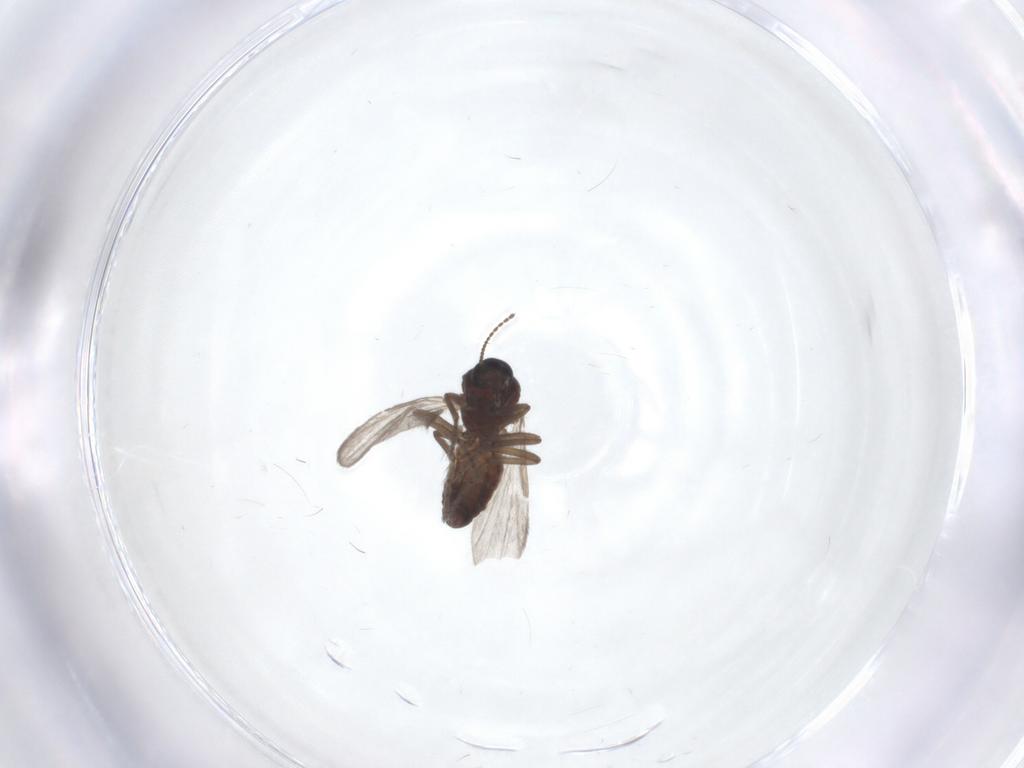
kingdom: Animalia
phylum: Arthropoda
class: Insecta
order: Diptera
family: Ceratopogonidae
